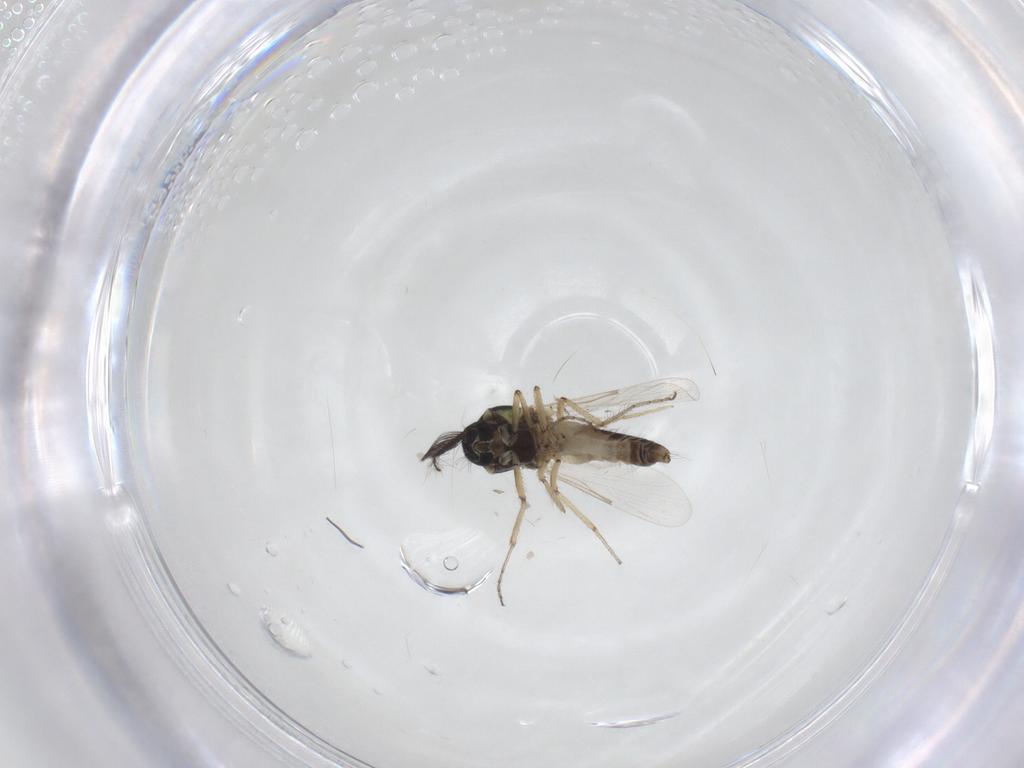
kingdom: Animalia
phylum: Arthropoda
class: Insecta
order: Diptera
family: Ceratopogonidae
